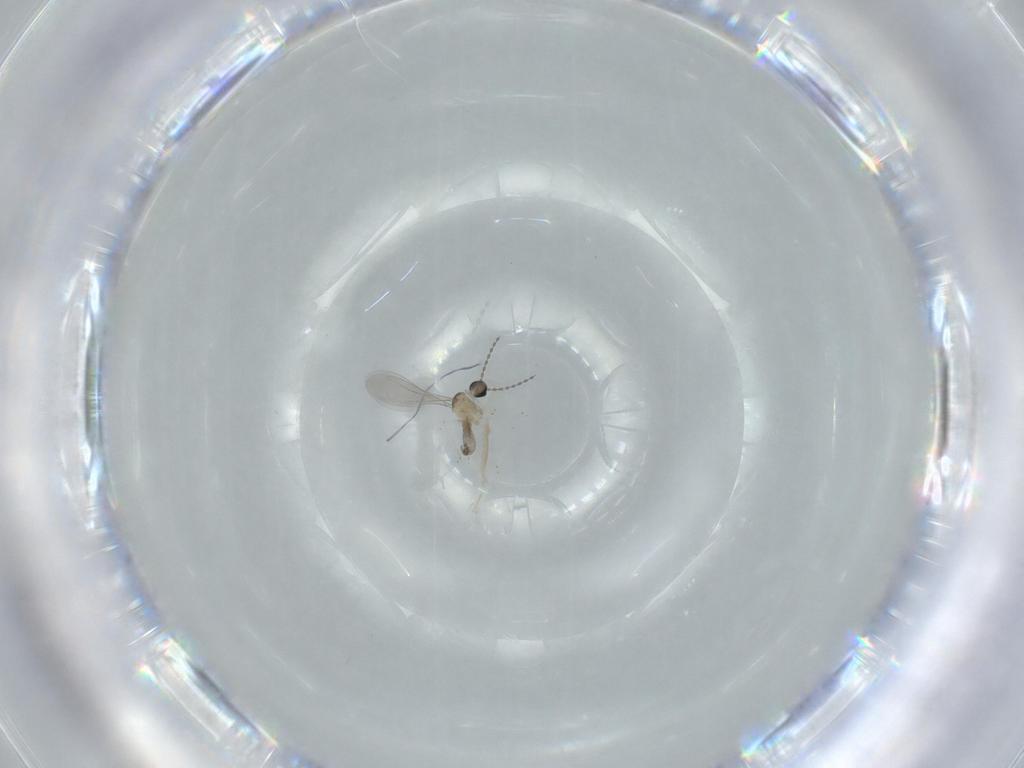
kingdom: Animalia
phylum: Arthropoda
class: Insecta
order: Diptera
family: Cecidomyiidae
